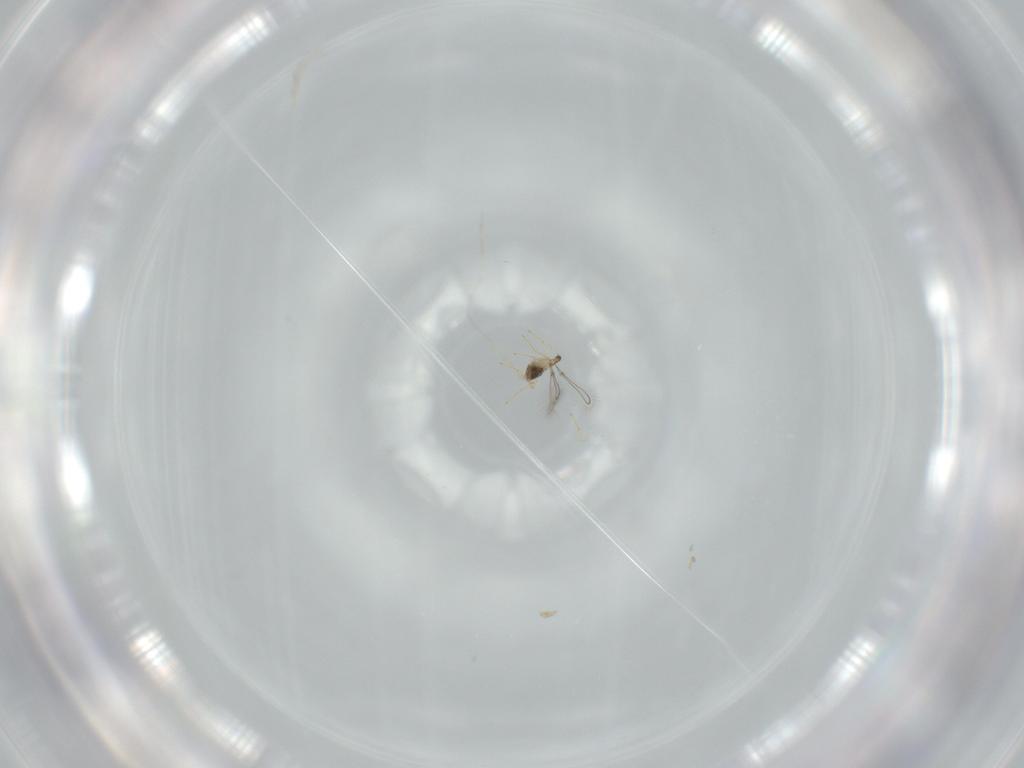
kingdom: Animalia
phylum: Arthropoda
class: Insecta
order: Hymenoptera
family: Mymaridae
